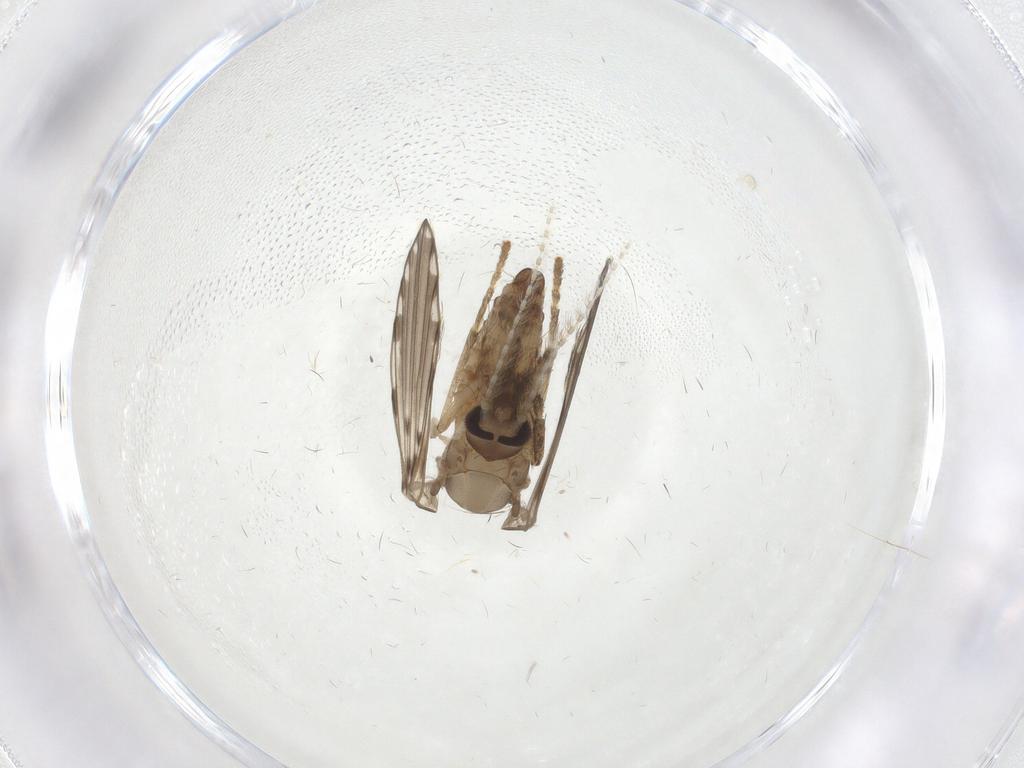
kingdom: Animalia
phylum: Arthropoda
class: Insecta
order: Diptera
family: Psychodidae
